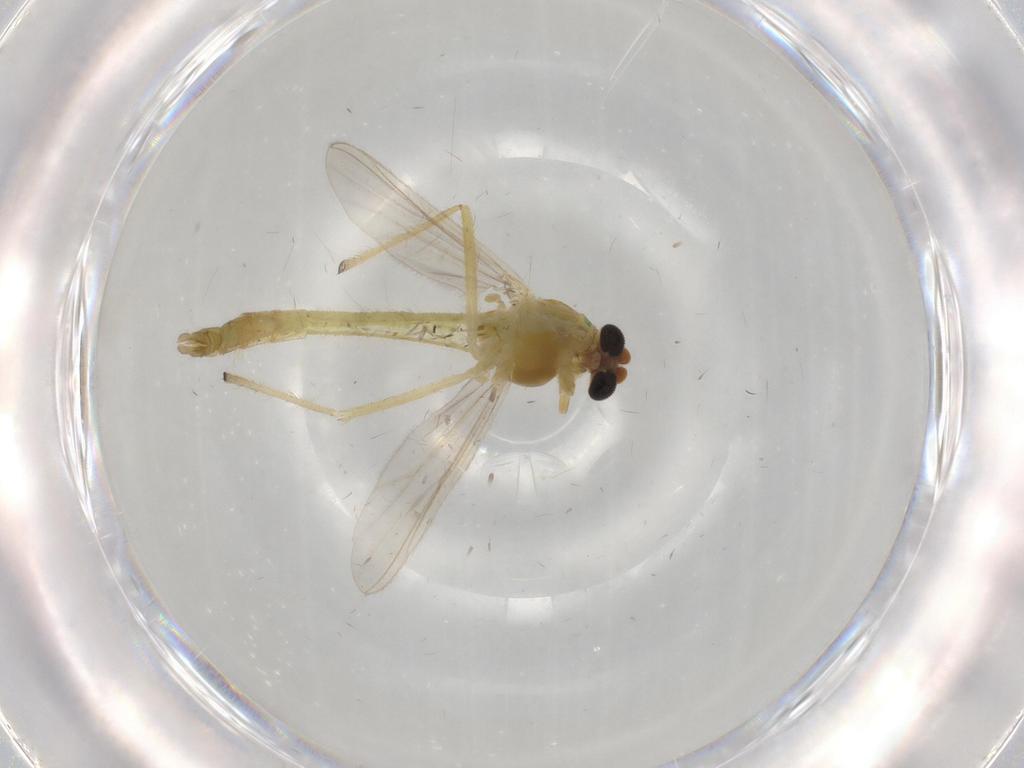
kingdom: Animalia
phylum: Arthropoda
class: Insecta
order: Diptera
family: Chironomidae
